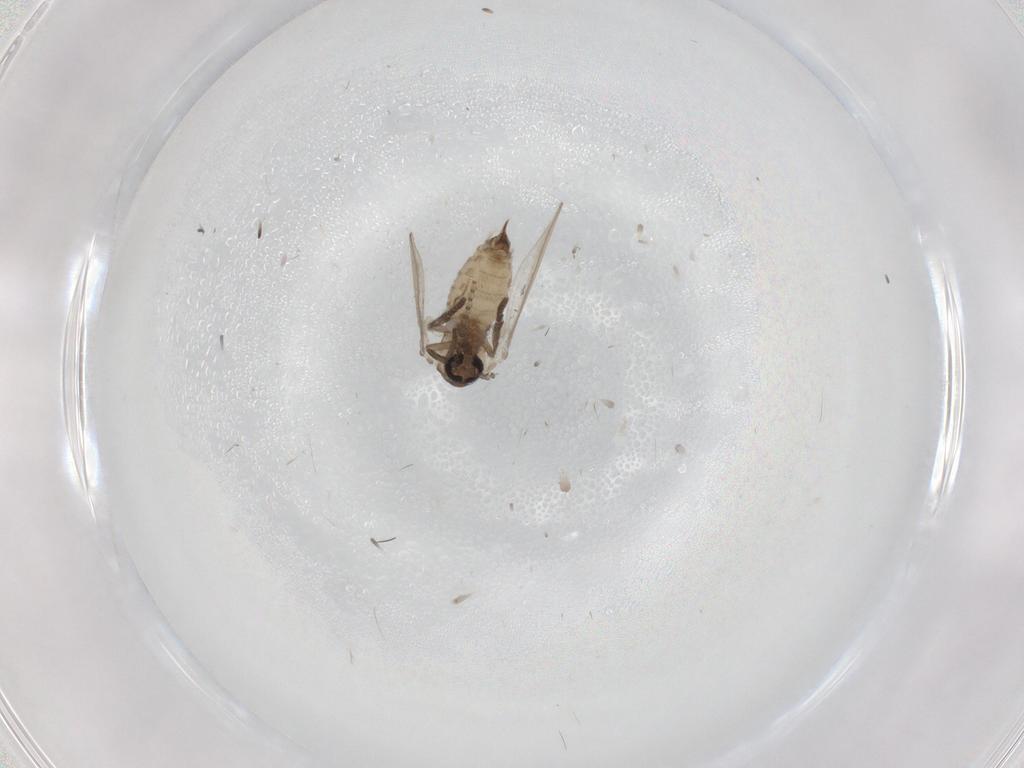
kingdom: Animalia
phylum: Arthropoda
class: Insecta
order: Diptera
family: Psychodidae
